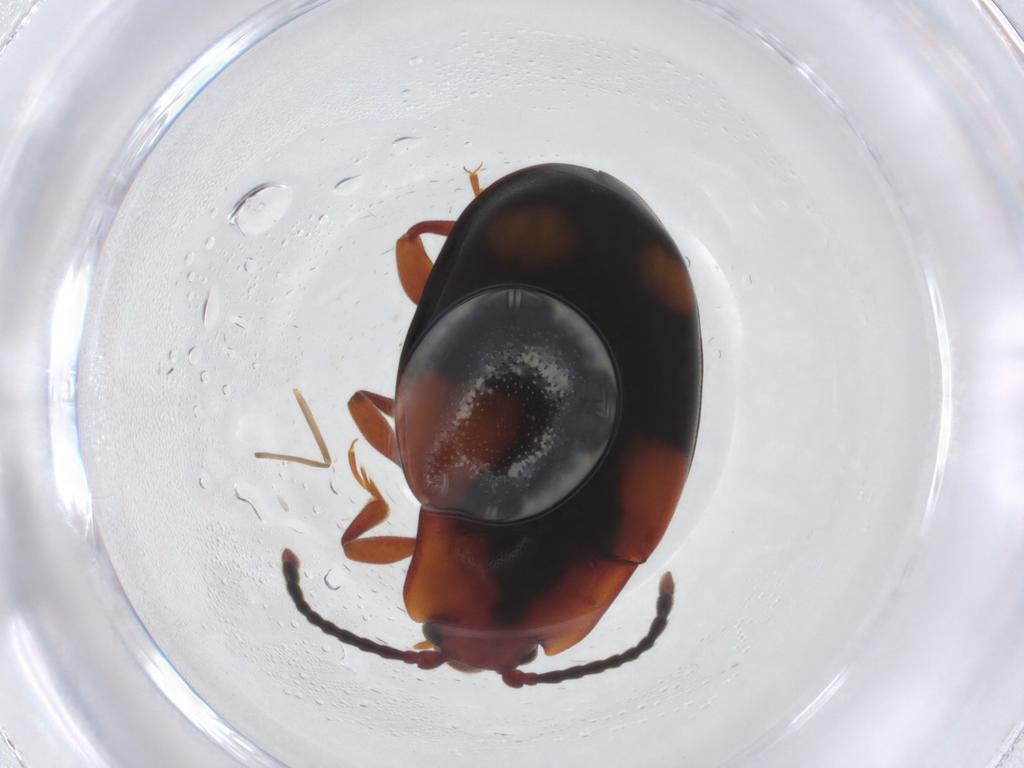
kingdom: Animalia
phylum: Arthropoda
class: Insecta
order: Coleoptera
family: Endomychidae
